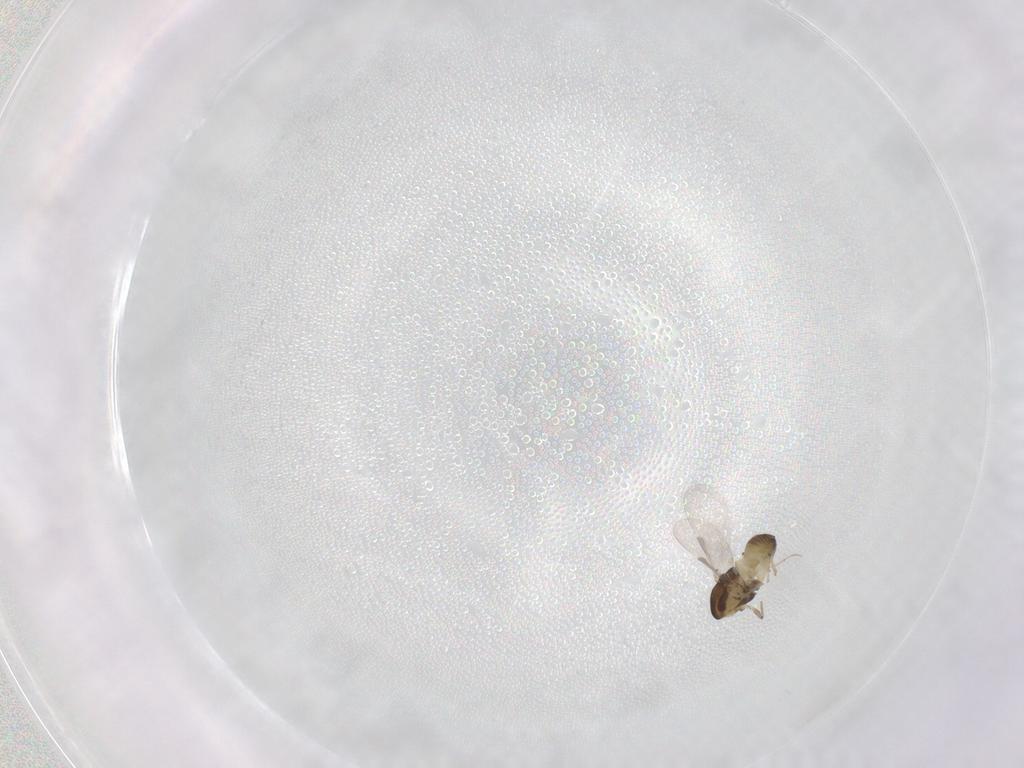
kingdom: Animalia
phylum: Arthropoda
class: Insecta
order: Diptera
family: Chironomidae
